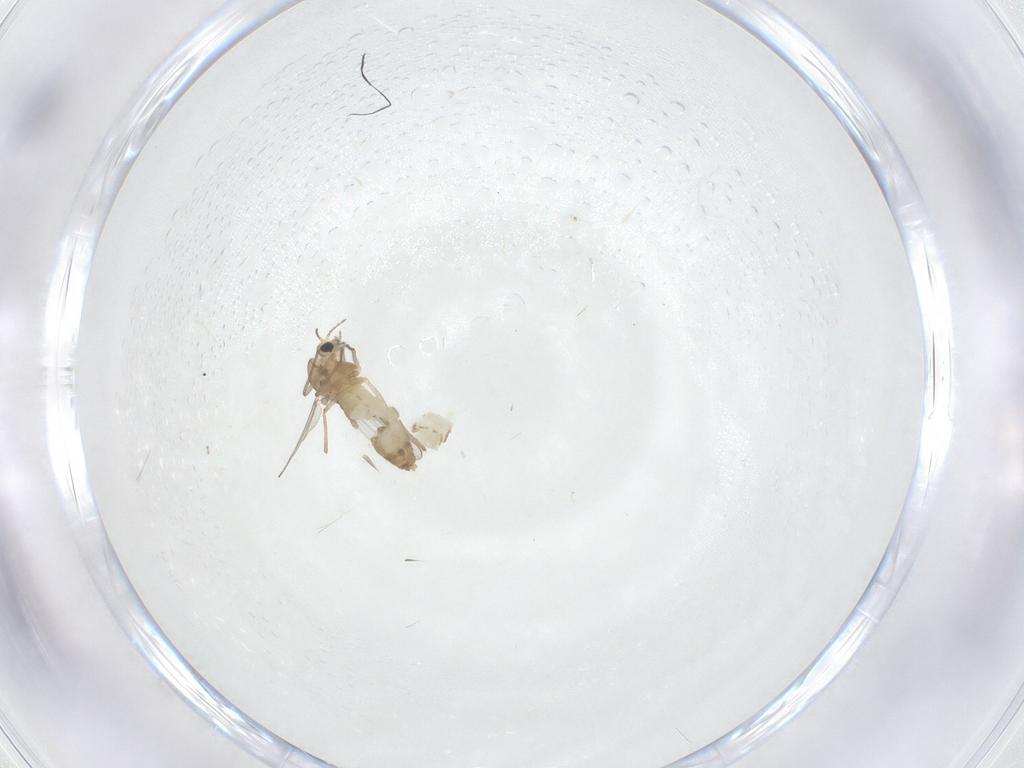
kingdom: Animalia
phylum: Arthropoda
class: Insecta
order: Diptera
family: Chironomidae
